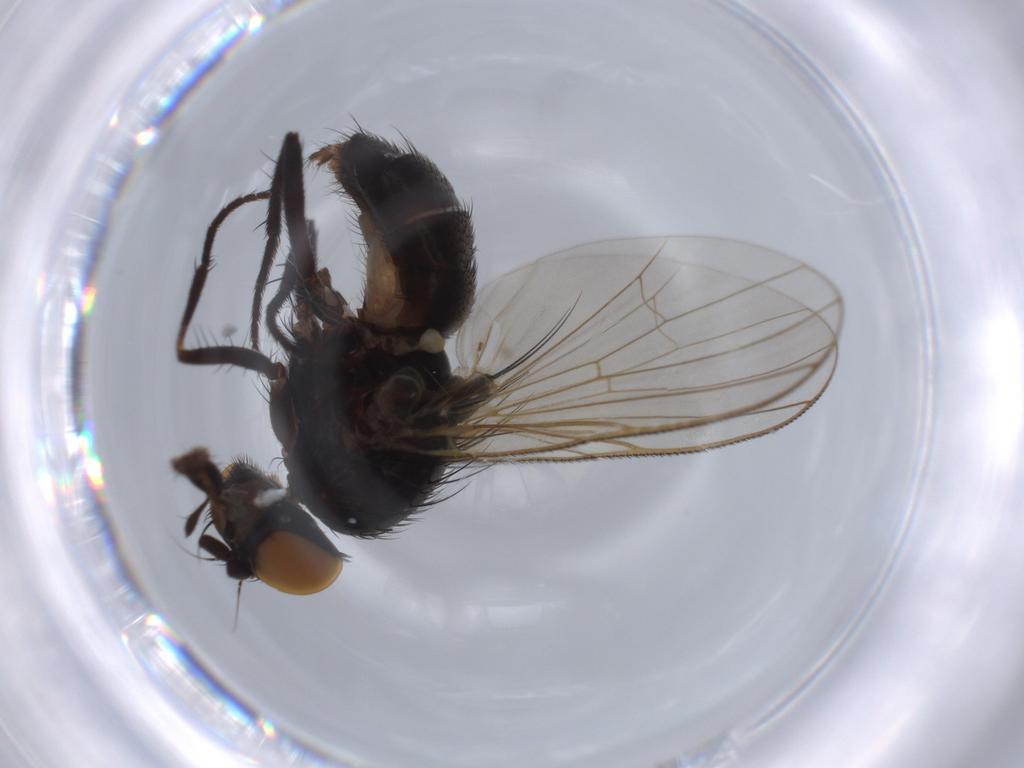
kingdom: Animalia
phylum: Arthropoda
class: Insecta
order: Diptera
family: Fannia
